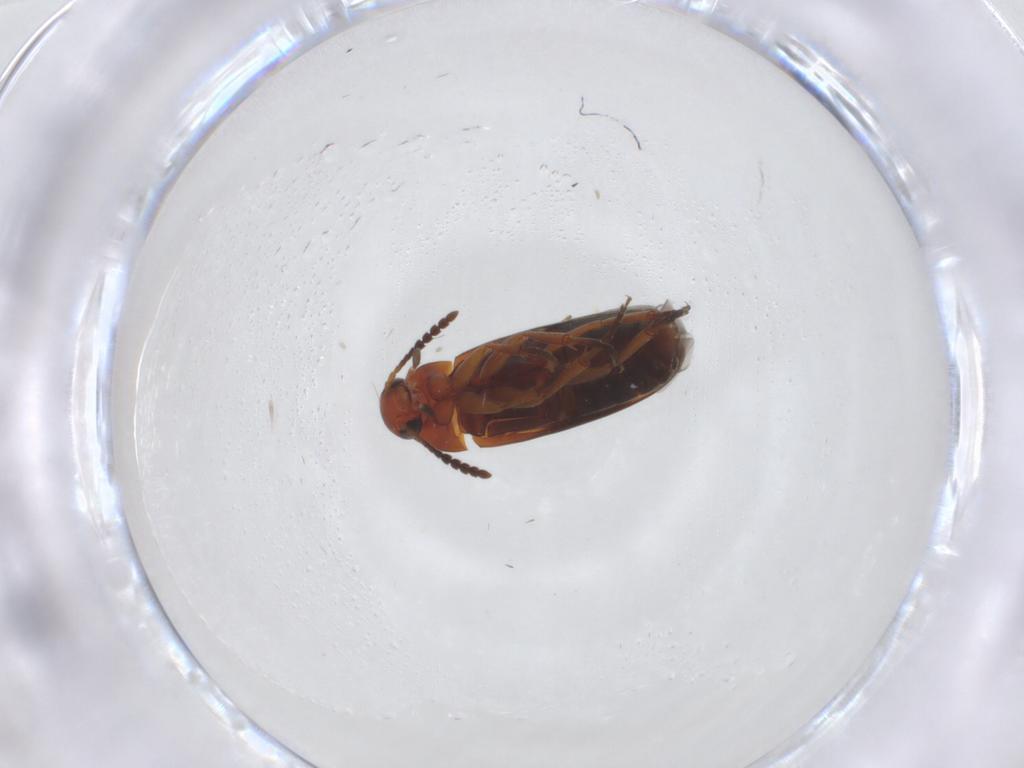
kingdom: Animalia
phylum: Arthropoda
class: Insecta
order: Coleoptera
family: Scraptiidae
